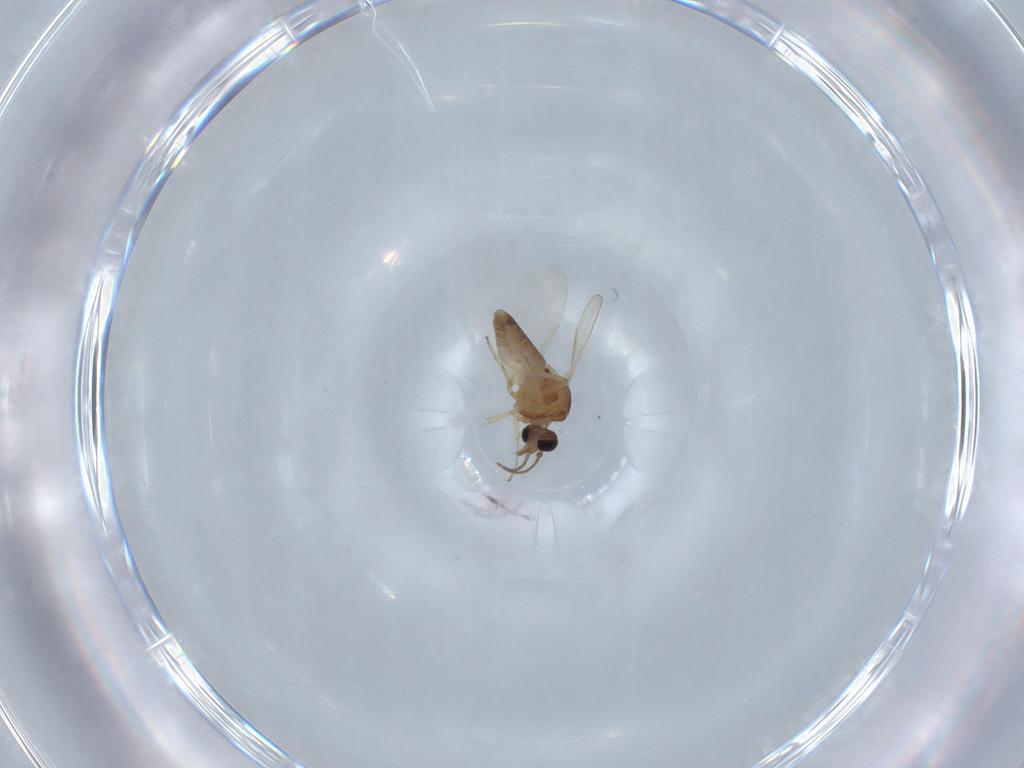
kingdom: Animalia
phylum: Arthropoda
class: Insecta
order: Diptera
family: Ceratopogonidae
